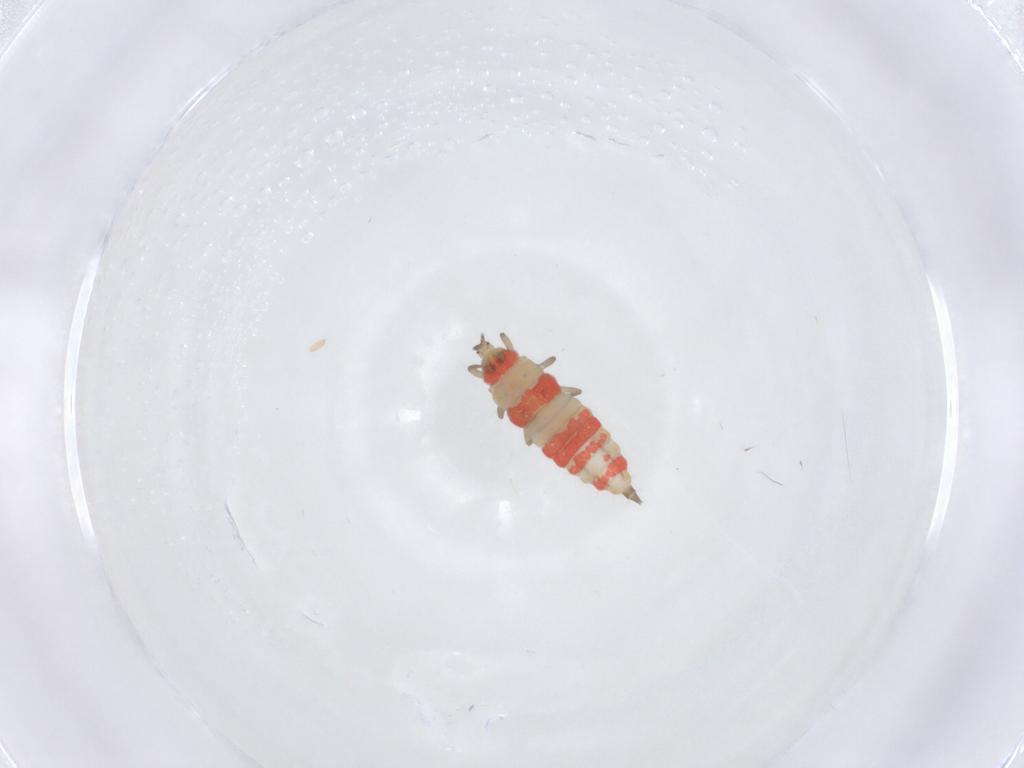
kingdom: Animalia
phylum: Arthropoda
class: Insecta
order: Thysanoptera
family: Phlaeothripidae
